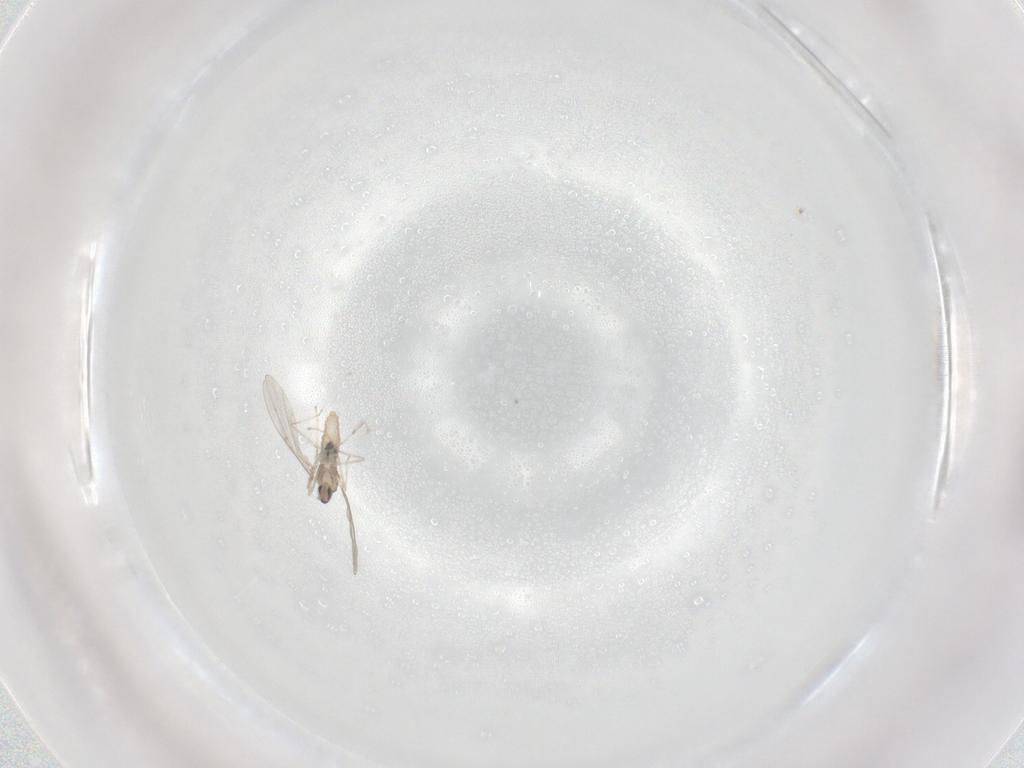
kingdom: Animalia
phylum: Arthropoda
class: Insecta
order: Diptera
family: Cecidomyiidae
